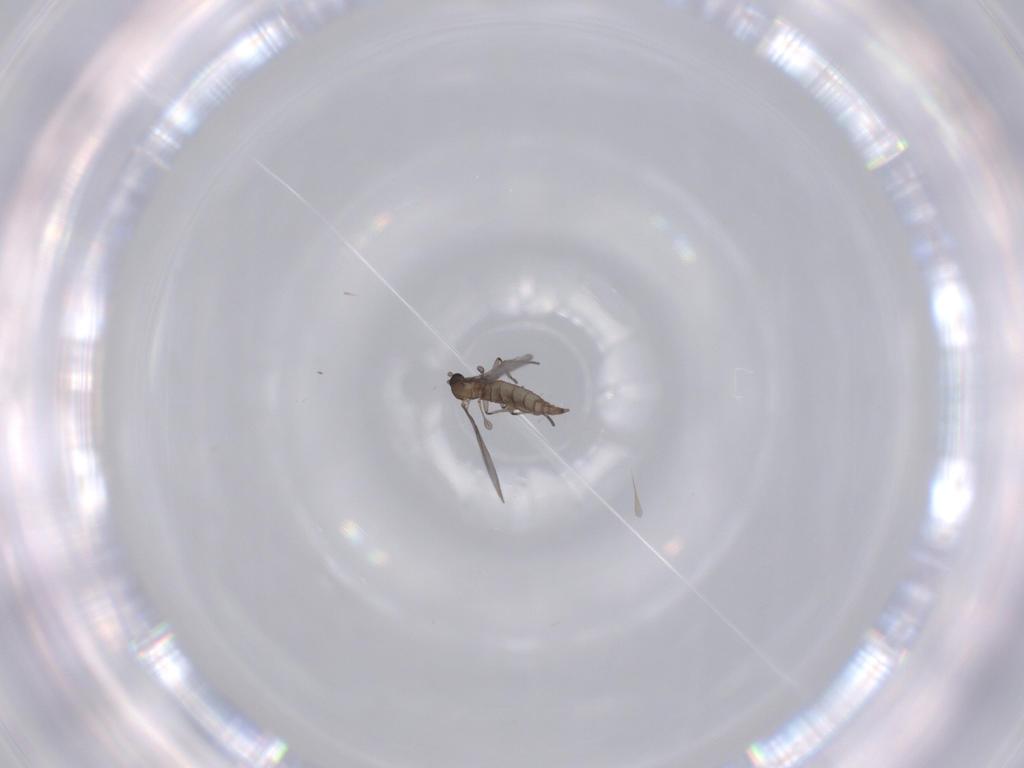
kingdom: Animalia
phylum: Arthropoda
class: Insecta
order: Diptera
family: Sciaridae
